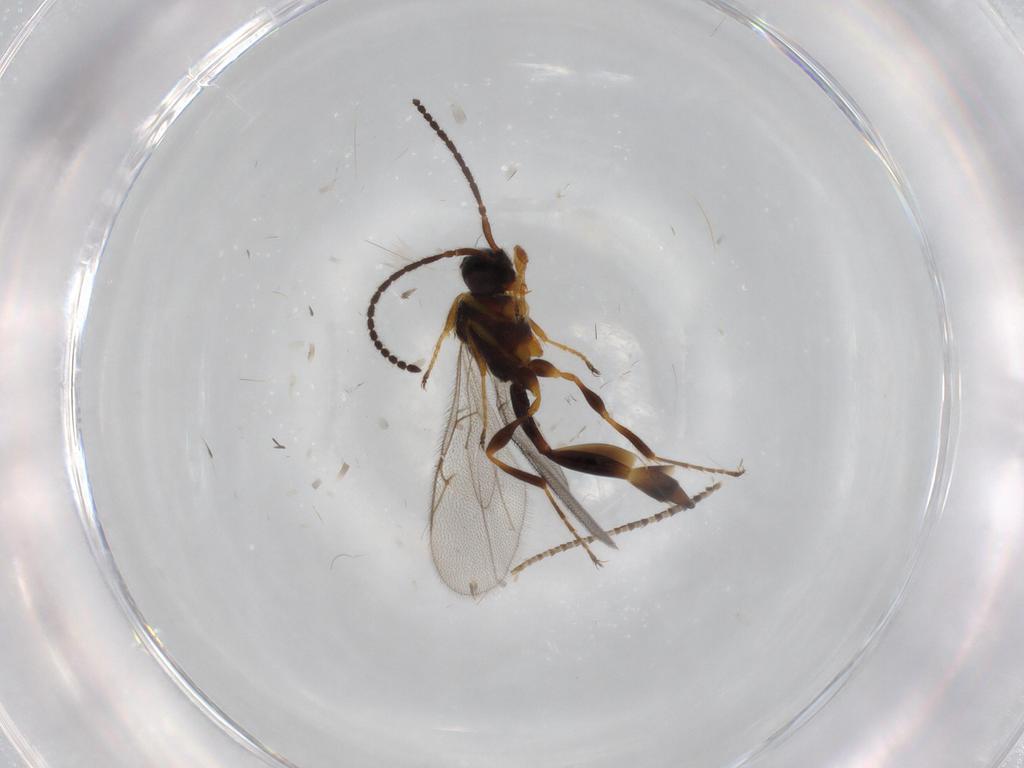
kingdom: Animalia
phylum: Arthropoda
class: Insecta
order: Hymenoptera
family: Diapriidae
